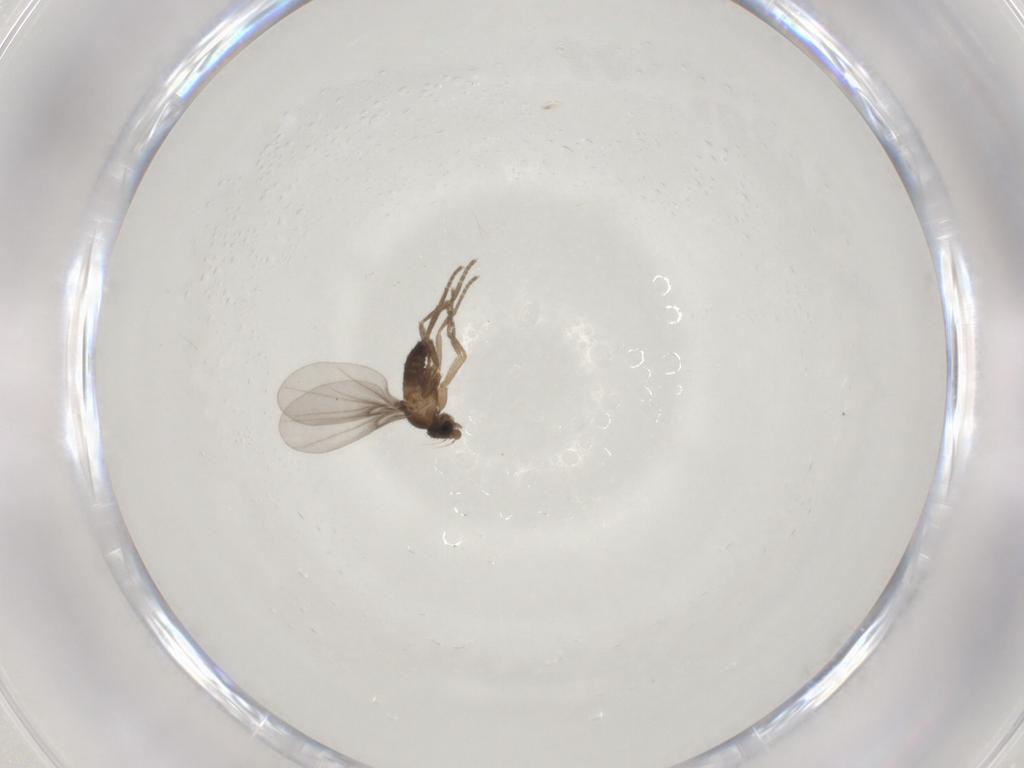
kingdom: Animalia
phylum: Arthropoda
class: Insecta
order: Diptera
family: Phoridae
